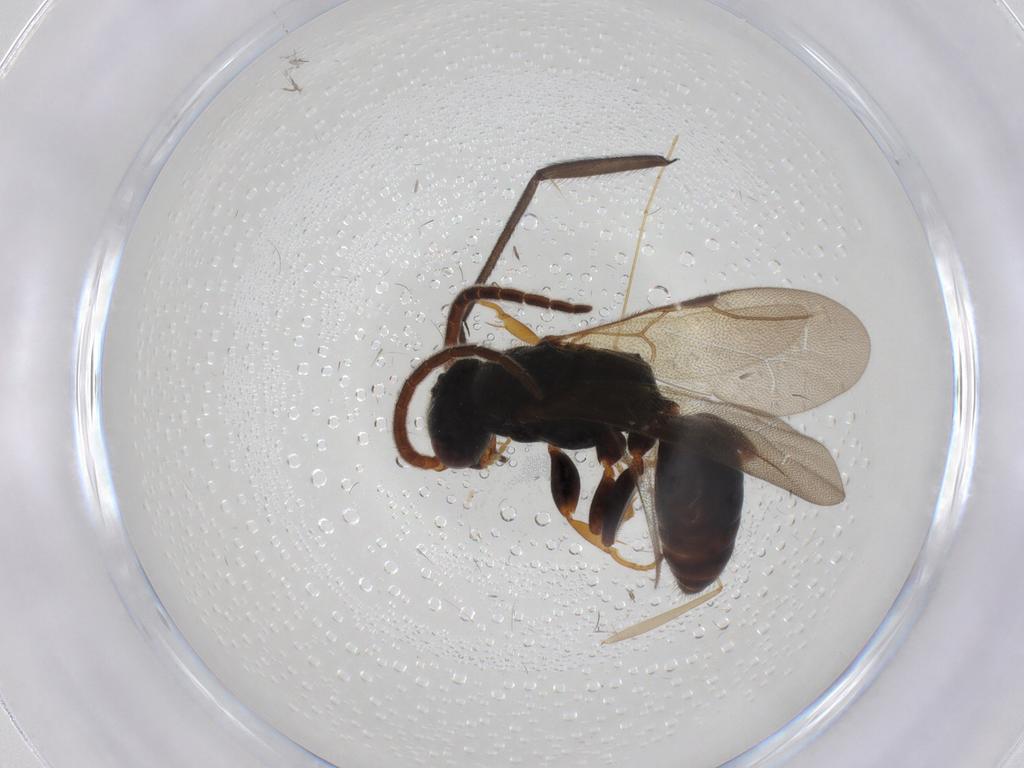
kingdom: Animalia
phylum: Arthropoda
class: Insecta
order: Hymenoptera
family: Bethylidae
